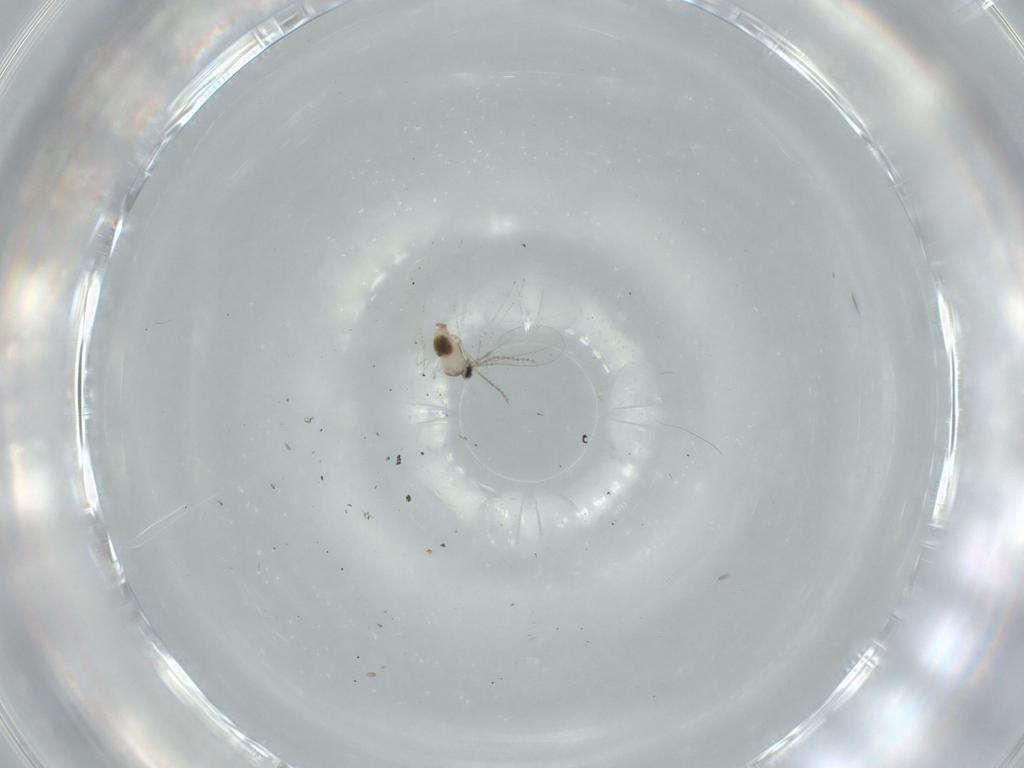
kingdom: Animalia
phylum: Arthropoda
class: Insecta
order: Diptera
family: Cecidomyiidae
